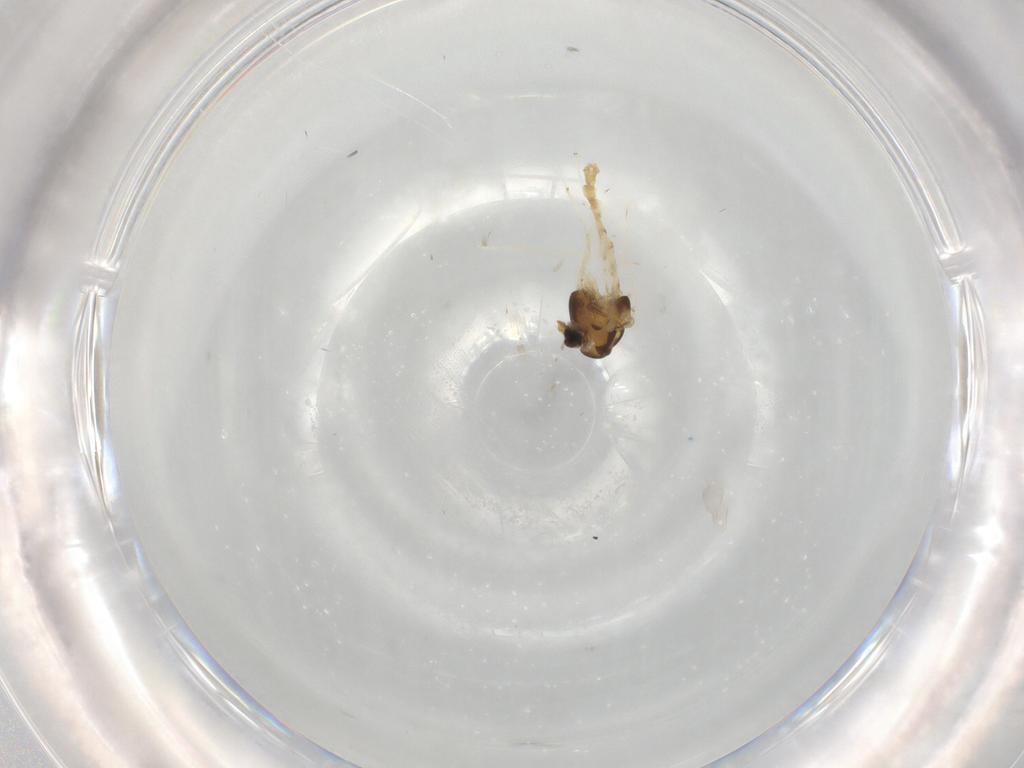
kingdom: Animalia
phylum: Arthropoda
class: Insecta
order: Diptera
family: Chironomidae
